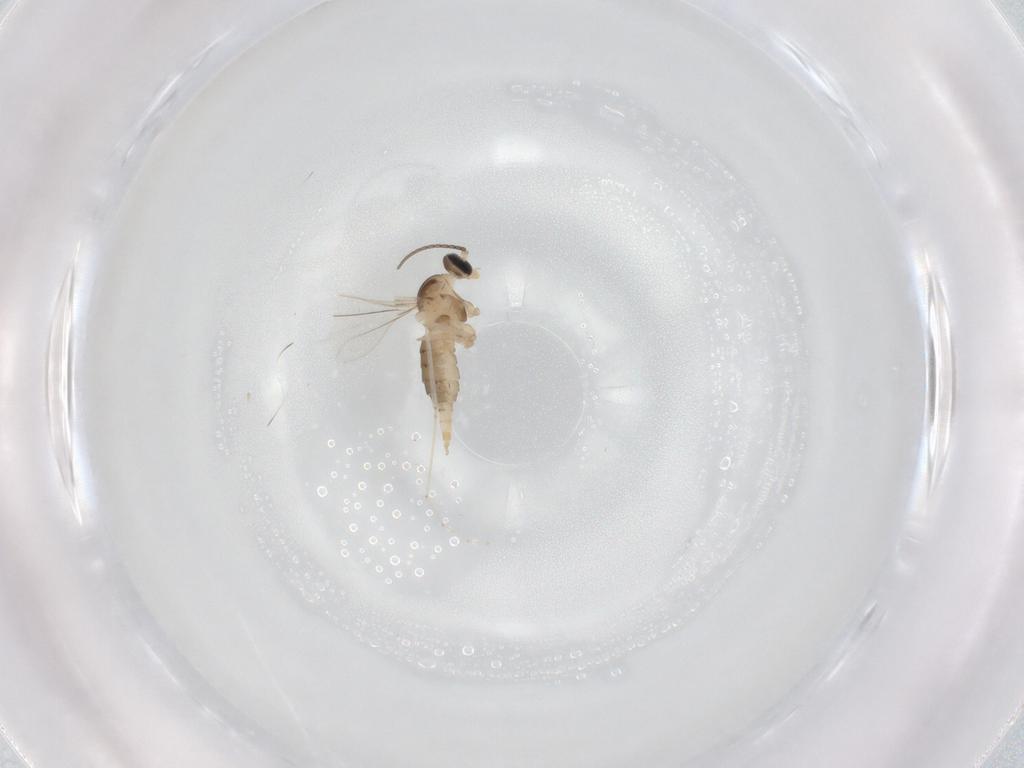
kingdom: Animalia
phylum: Arthropoda
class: Insecta
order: Diptera
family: Cecidomyiidae
